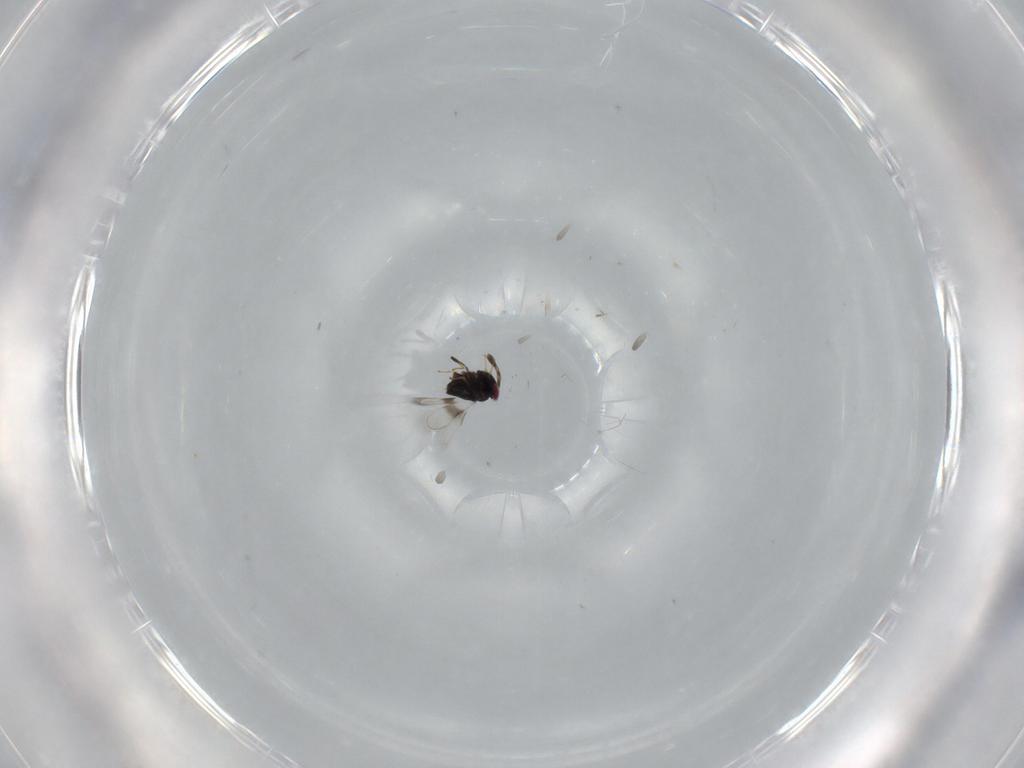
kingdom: Animalia
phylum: Arthropoda
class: Insecta
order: Hymenoptera
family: Azotidae
